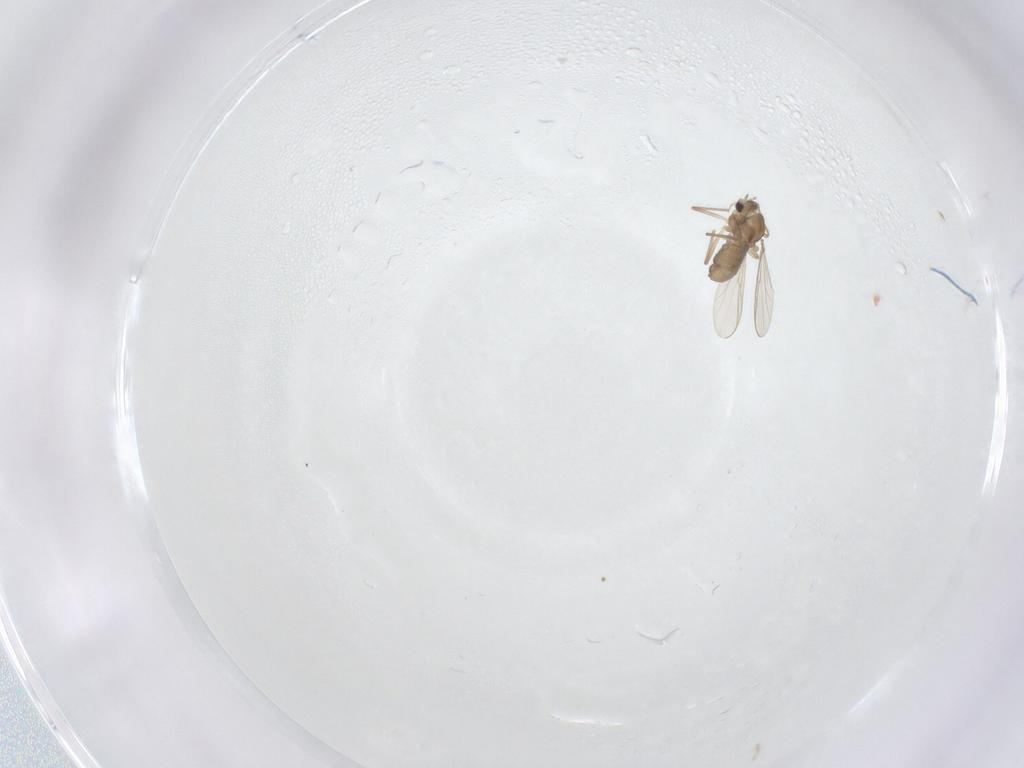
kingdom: Animalia
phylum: Arthropoda
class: Insecta
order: Diptera
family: Chironomidae
